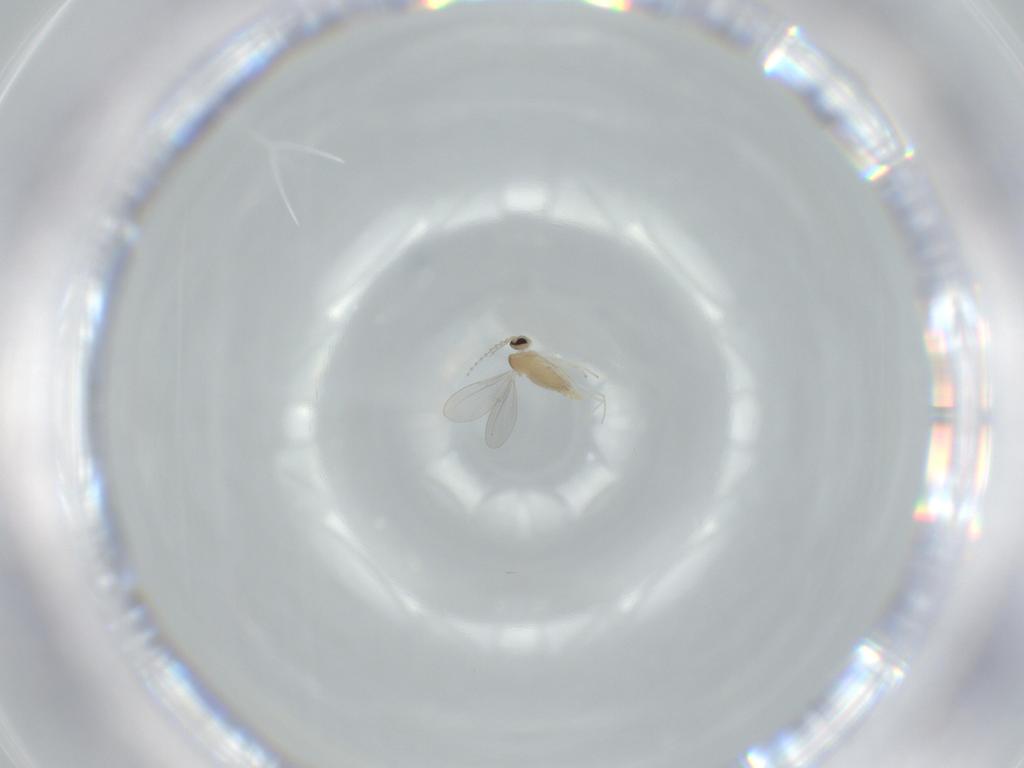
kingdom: Animalia
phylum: Arthropoda
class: Insecta
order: Diptera
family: Cecidomyiidae
